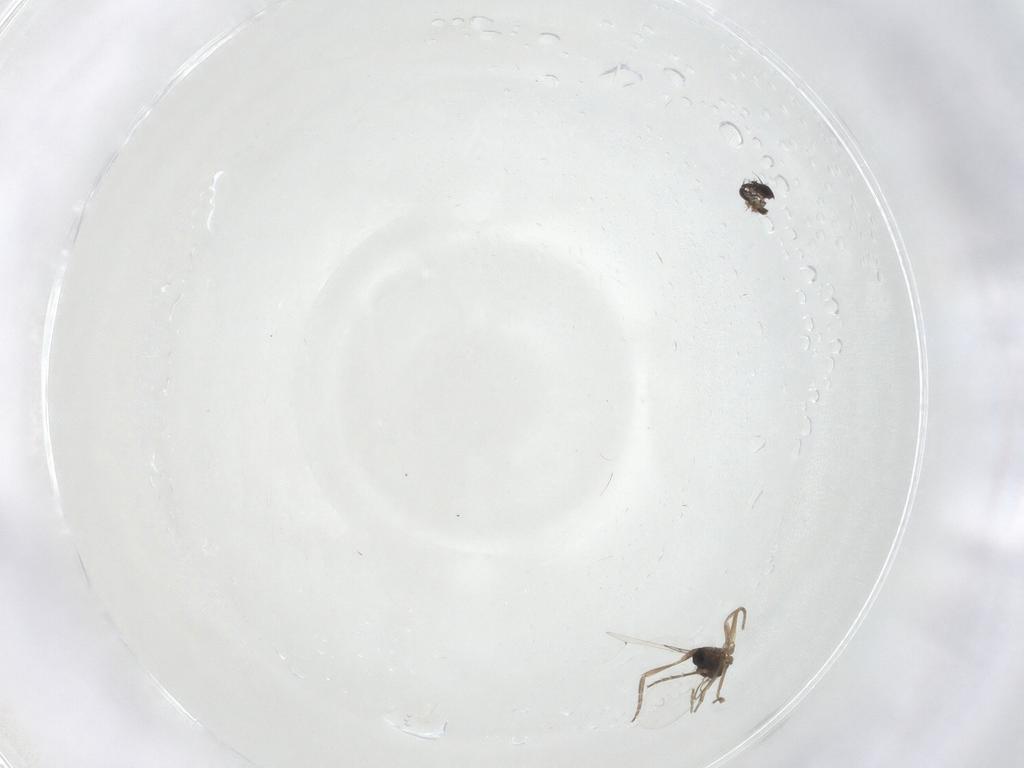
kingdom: Animalia
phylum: Arthropoda
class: Insecta
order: Diptera
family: Phoridae
